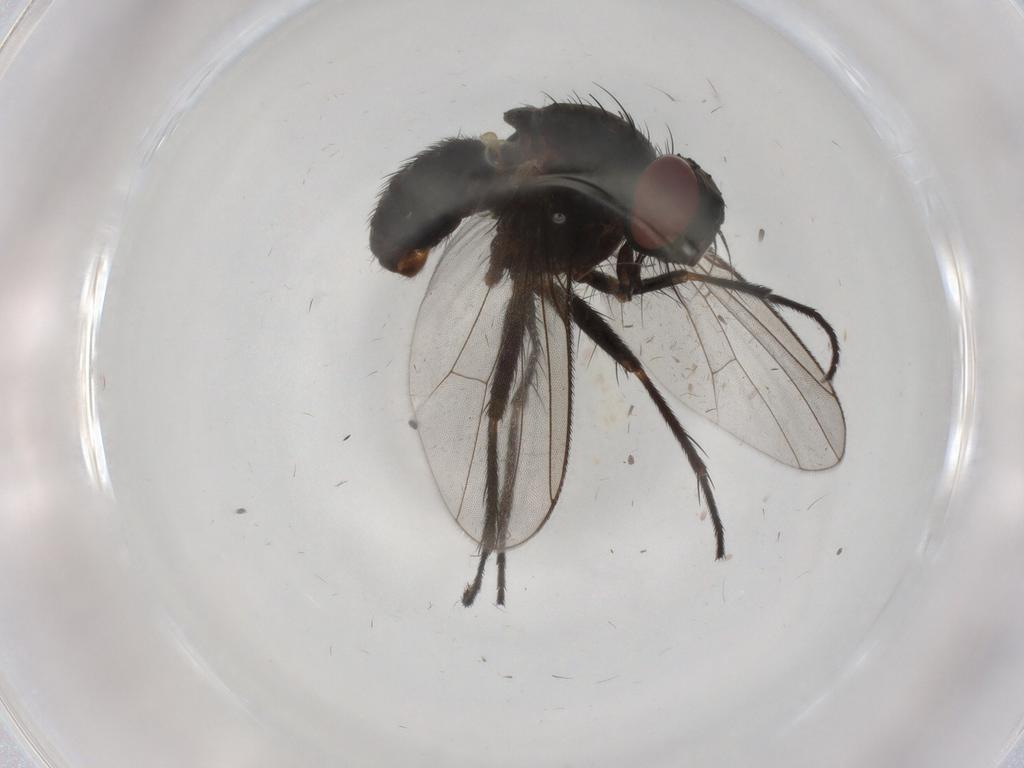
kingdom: Animalia
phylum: Arthropoda
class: Insecta
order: Diptera
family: Muscidae
